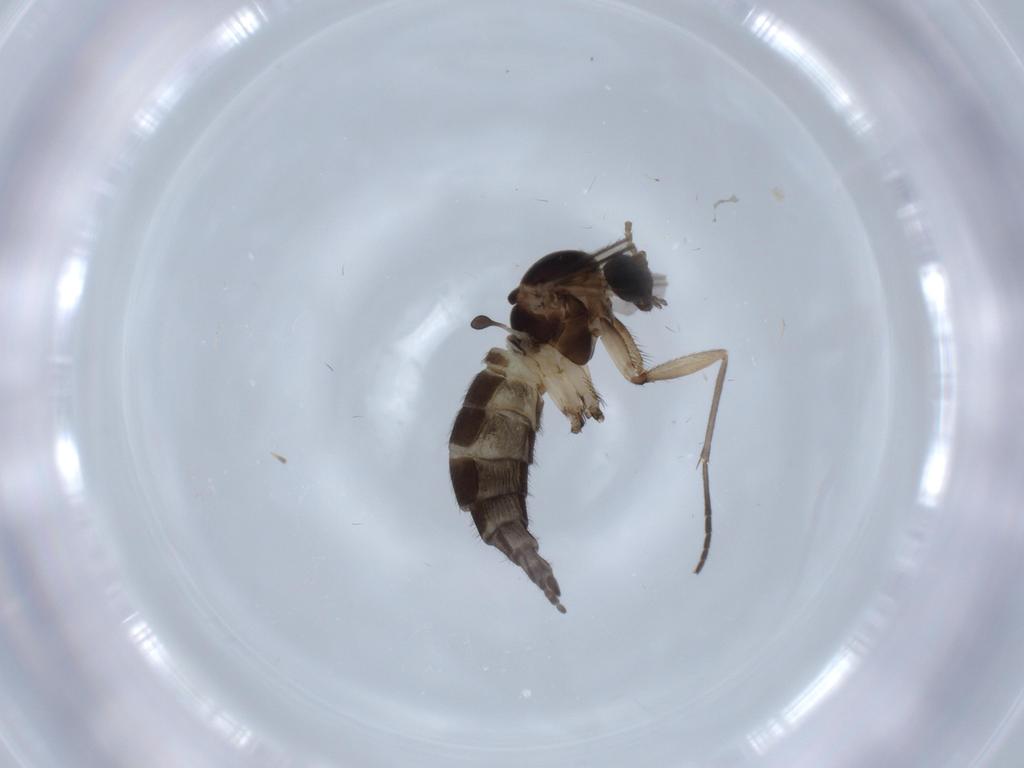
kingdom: Animalia
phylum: Arthropoda
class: Insecta
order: Diptera
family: Sciaridae
